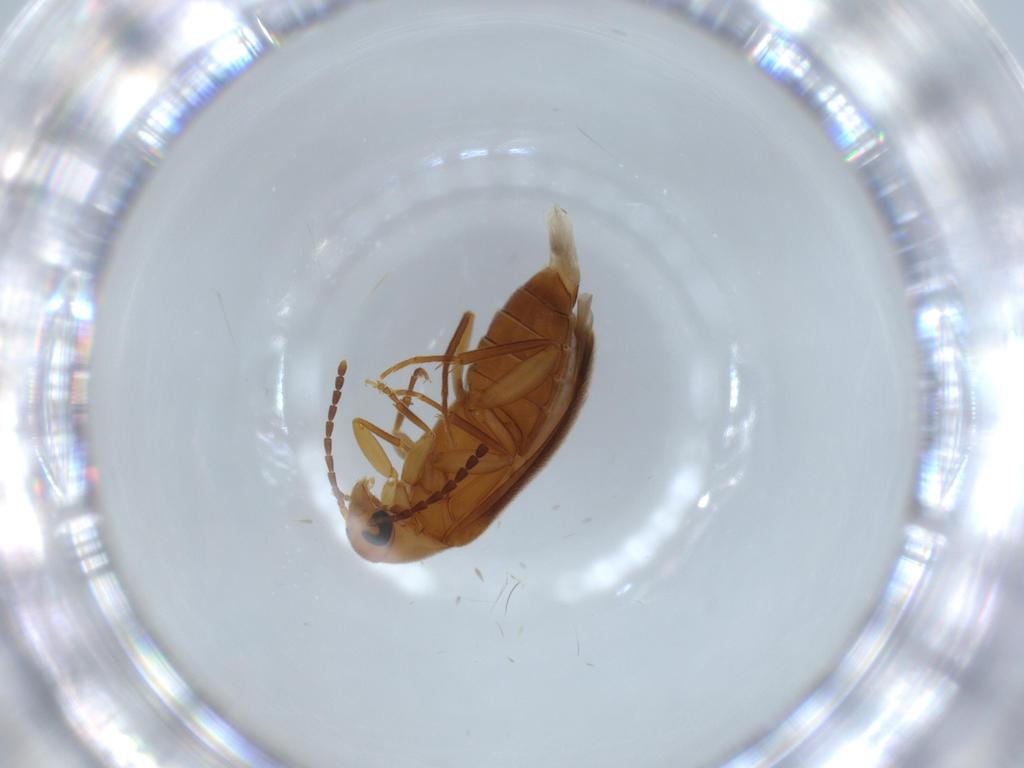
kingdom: Animalia
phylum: Arthropoda
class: Insecta
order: Coleoptera
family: Scraptiidae
